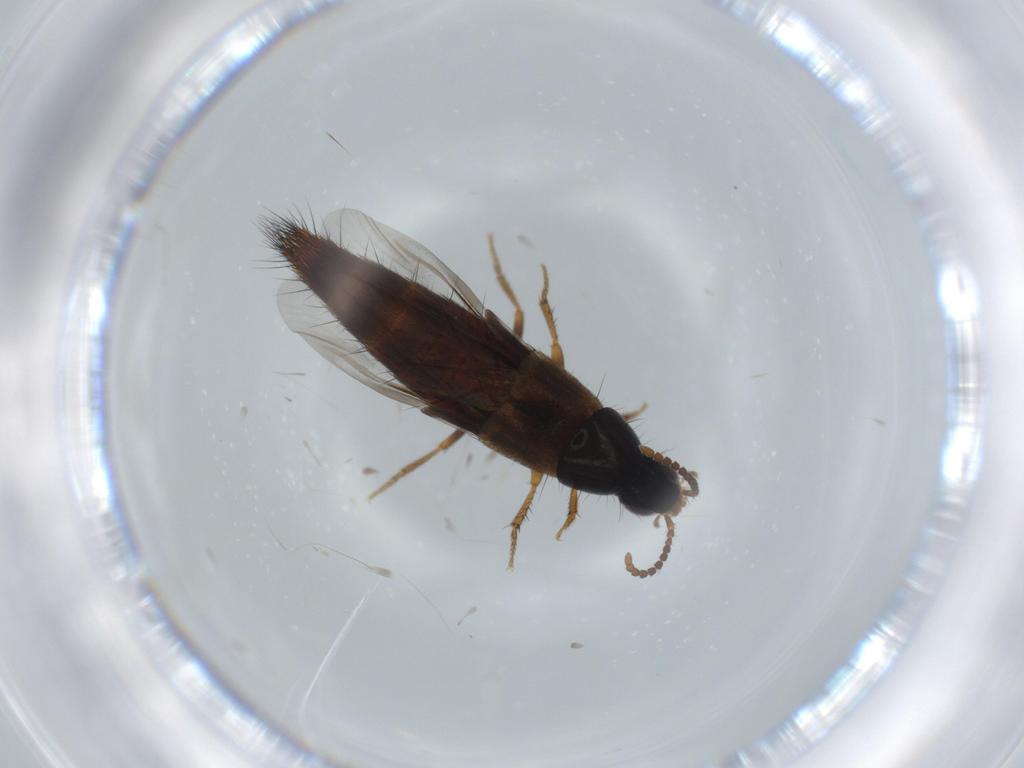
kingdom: Animalia
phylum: Arthropoda
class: Insecta
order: Coleoptera
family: Staphylinidae
